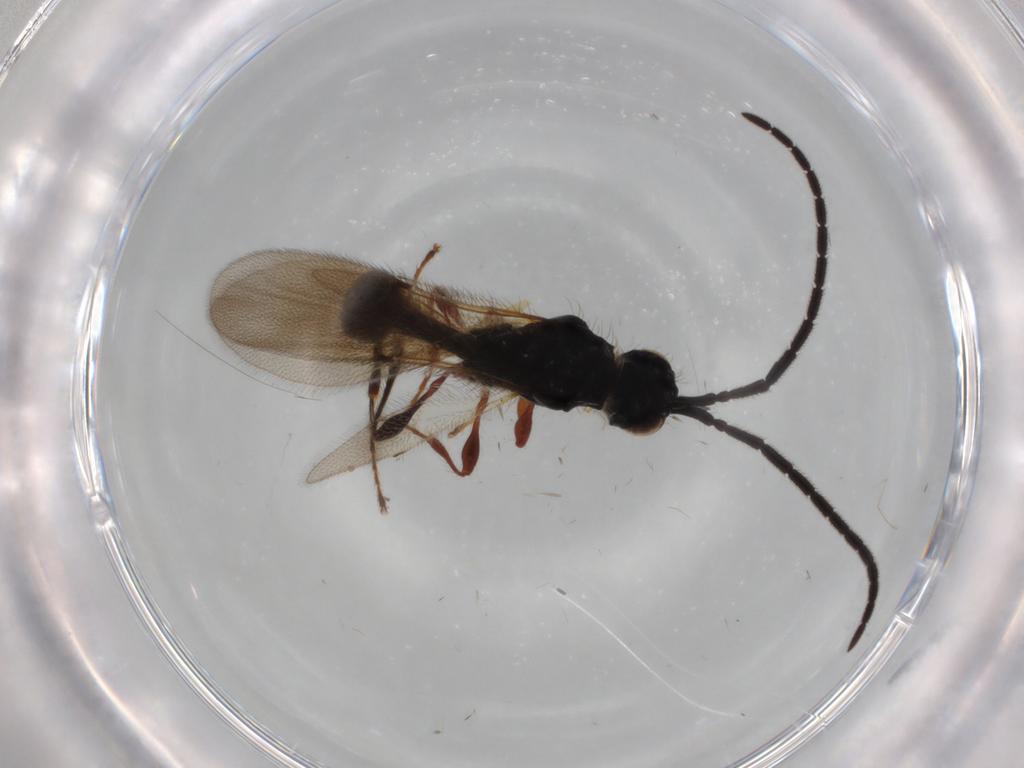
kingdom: Animalia
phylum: Arthropoda
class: Insecta
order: Hymenoptera
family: Diapriidae
